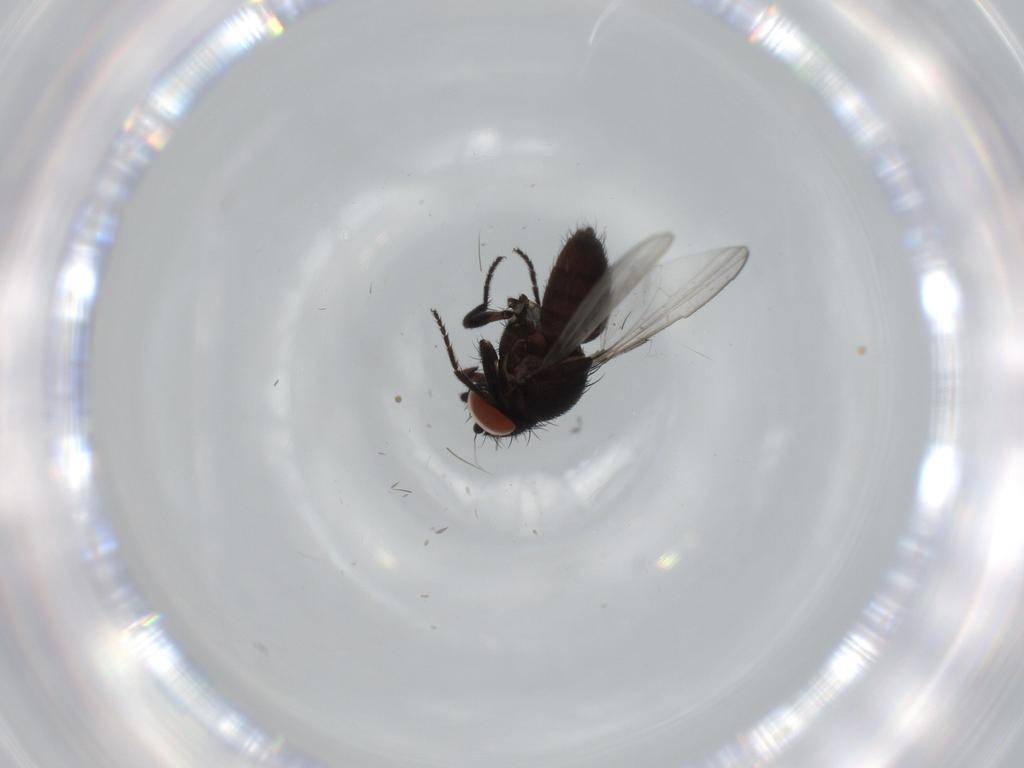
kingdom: Animalia
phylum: Arthropoda
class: Insecta
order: Diptera
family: Milichiidae
